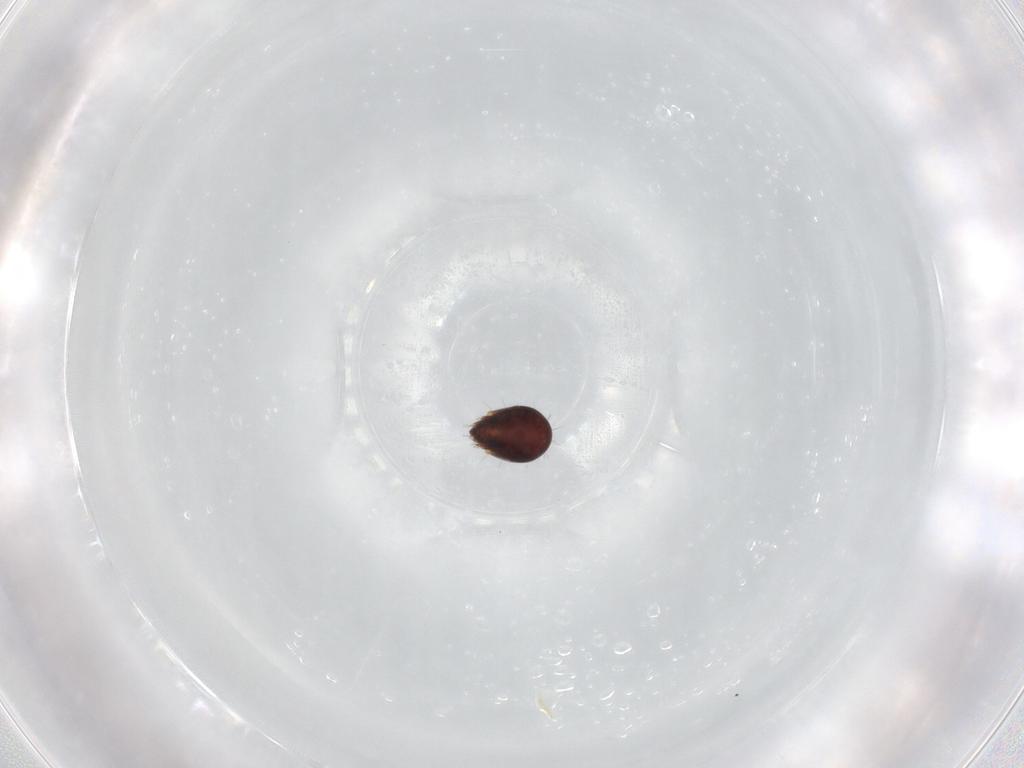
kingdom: Animalia
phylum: Arthropoda
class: Arachnida
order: Sarcoptiformes
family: Humerobatidae
